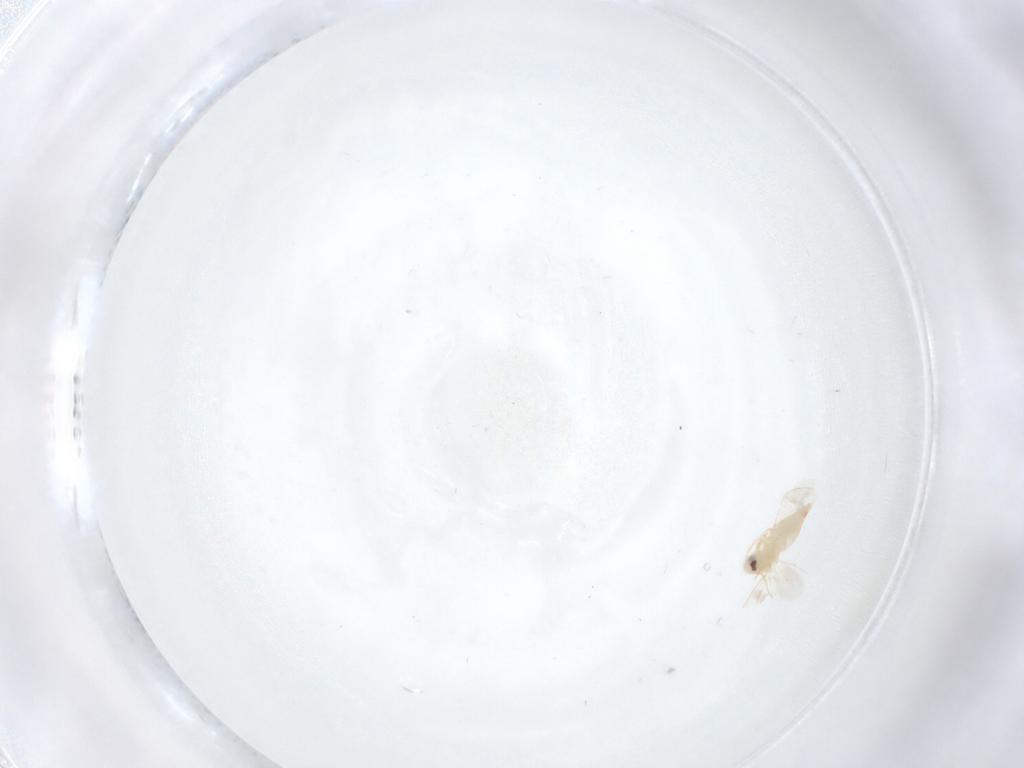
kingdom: Animalia
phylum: Arthropoda
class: Insecta
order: Hemiptera
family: Aleyrodidae
